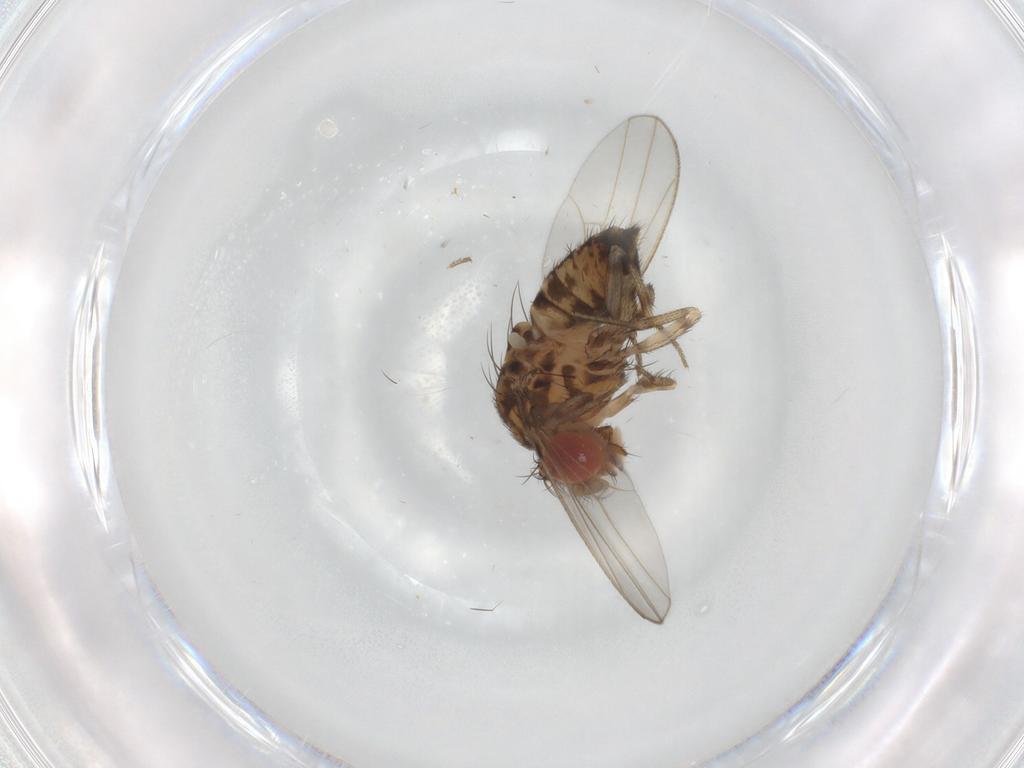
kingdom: Animalia
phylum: Arthropoda
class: Insecta
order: Diptera
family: Drosophilidae
